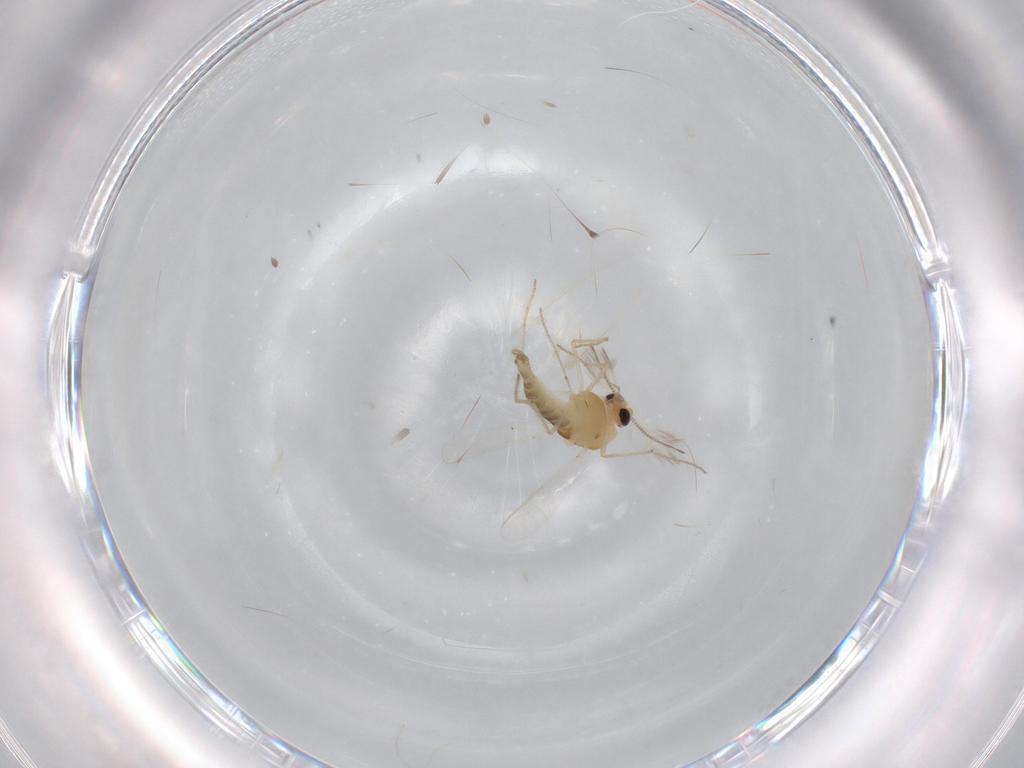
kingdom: Animalia
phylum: Arthropoda
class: Insecta
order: Diptera
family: Chironomidae
